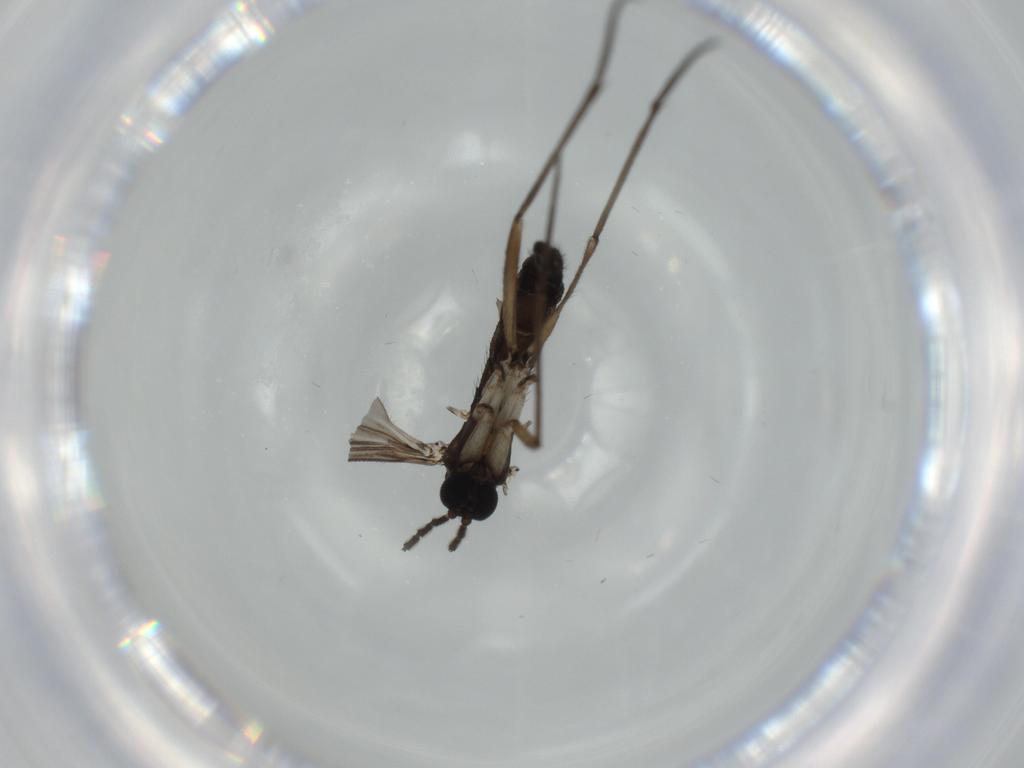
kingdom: Animalia
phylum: Arthropoda
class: Insecta
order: Diptera
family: Sciaridae
